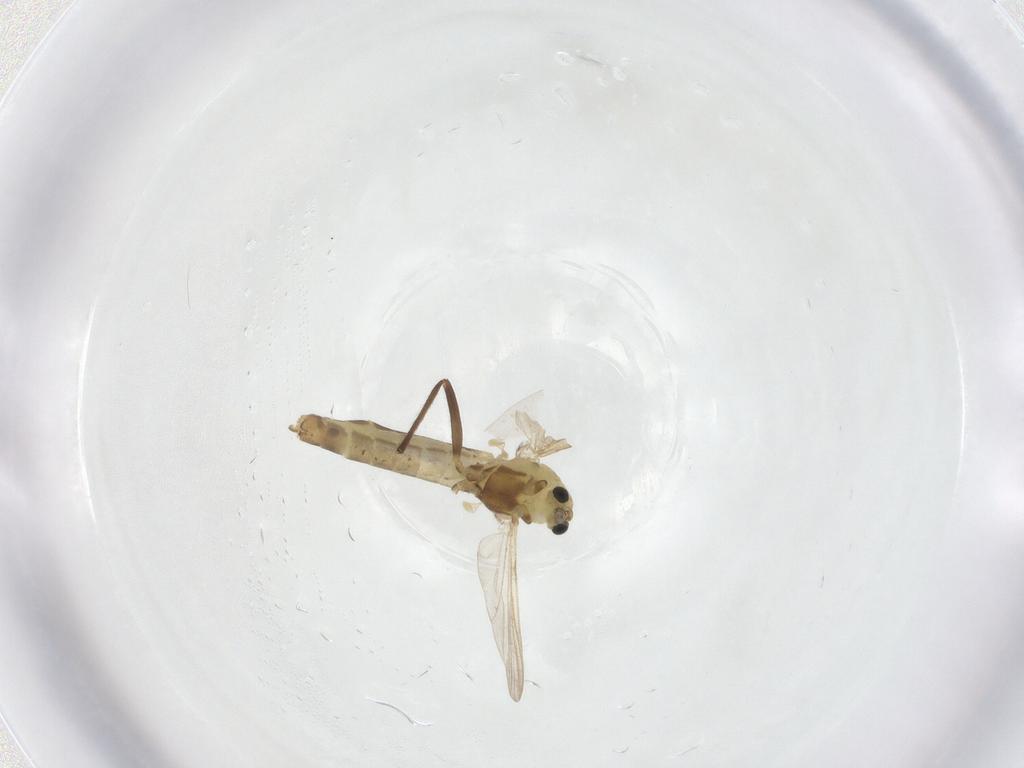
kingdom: Animalia
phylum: Arthropoda
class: Insecta
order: Diptera
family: Chironomidae
